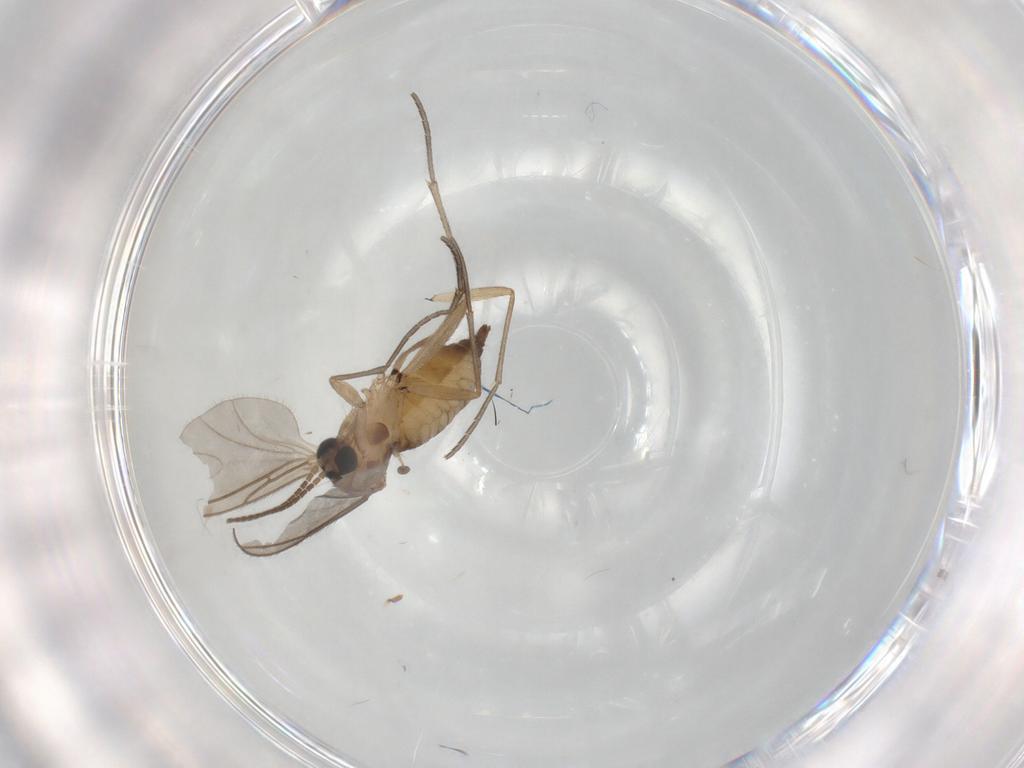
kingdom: Animalia
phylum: Arthropoda
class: Insecta
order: Diptera
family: Sciaridae
